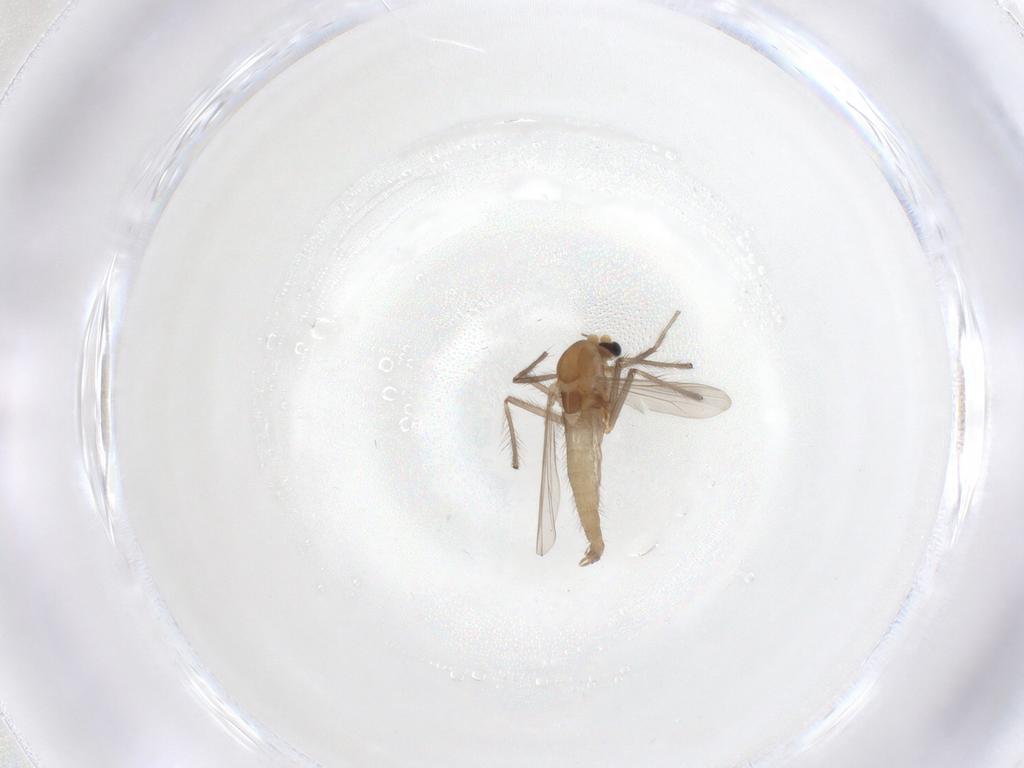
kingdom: Animalia
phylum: Arthropoda
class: Insecta
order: Diptera
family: Chironomidae
